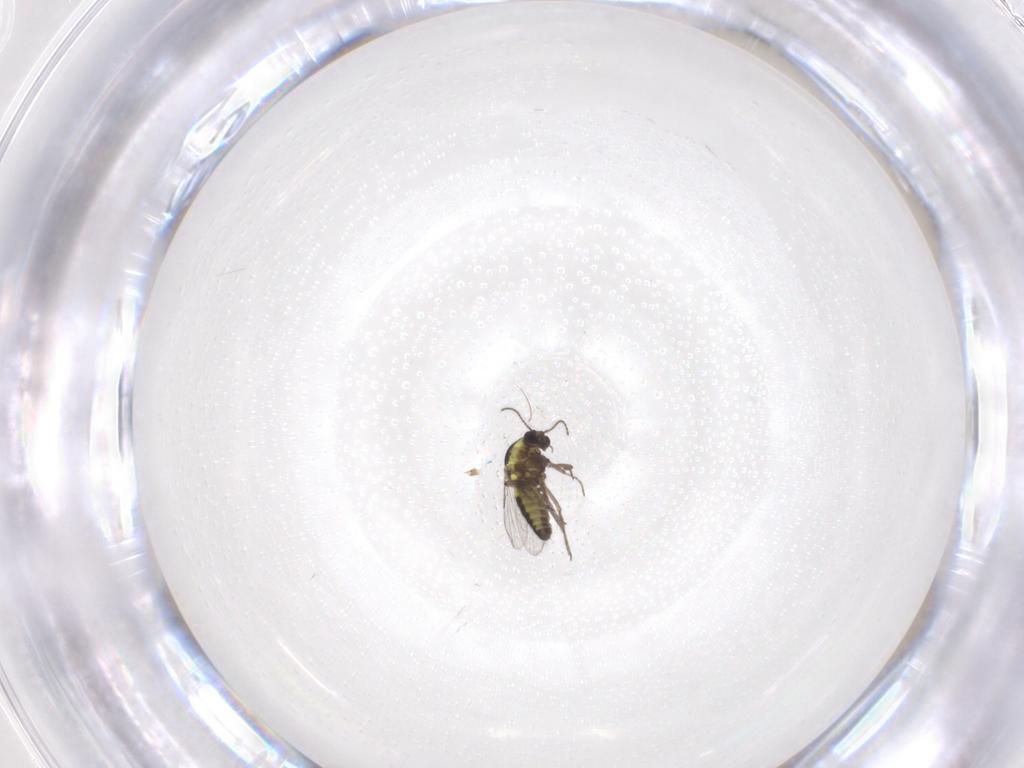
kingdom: Animalia
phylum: Arthropoda
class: Insecta
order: Diptera
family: Ceratopogonidae
